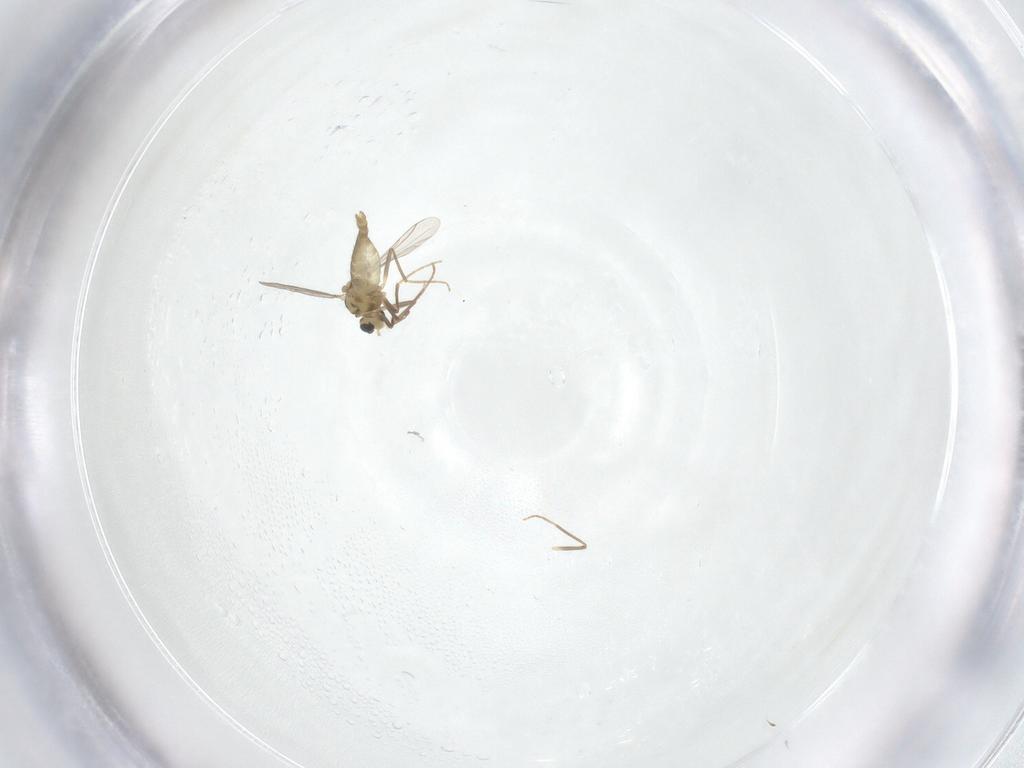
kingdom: Animalia
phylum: Arthropoda
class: Insecta
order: Diptera
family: Chironomidae
